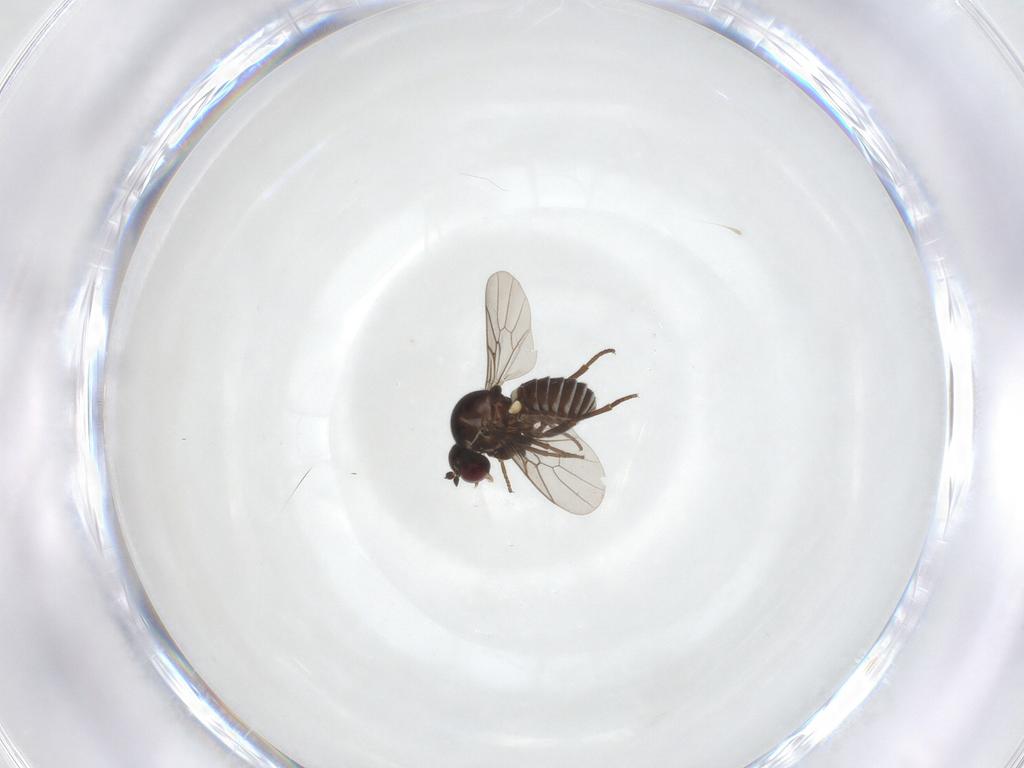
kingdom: Animalia
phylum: Arthropoda
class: Insecta
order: Diptera
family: Mythicomyiidae
